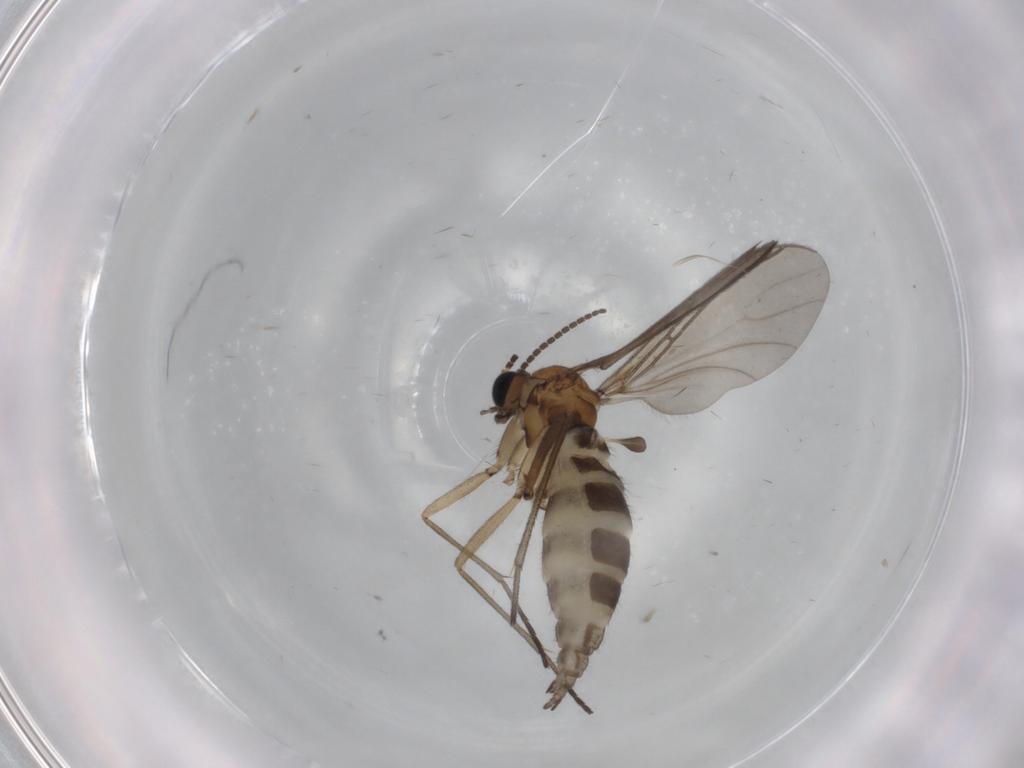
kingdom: Animalia
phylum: Arthropoda
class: Insecta
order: Diptera
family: Sciaridae
